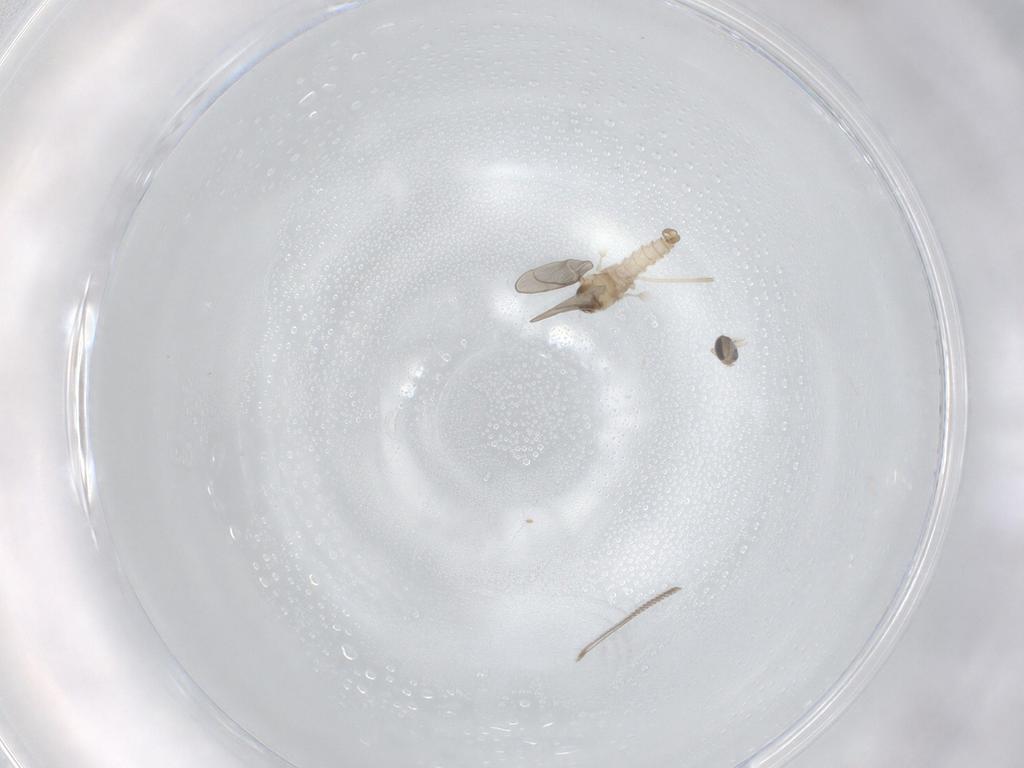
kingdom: Animalia
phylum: Arthropoda
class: Insecta
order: Diptera
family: Cecidomyiidae
